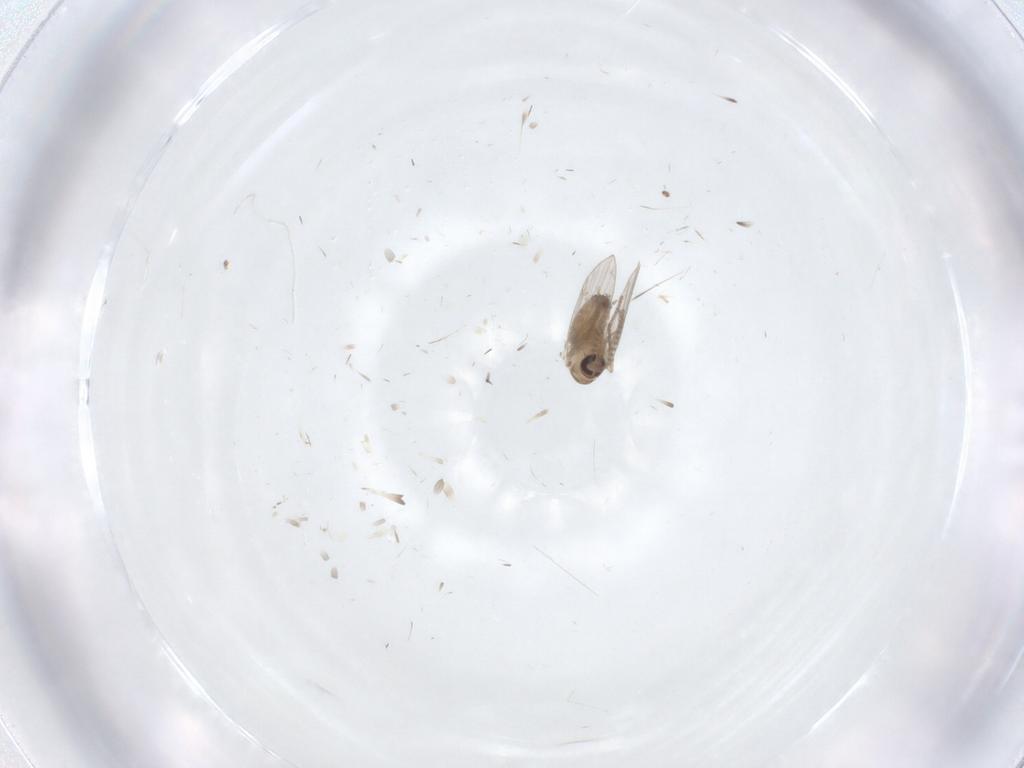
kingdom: Animalia
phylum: Arthropoda
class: Insecta
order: Diptera
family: Psychodidae
